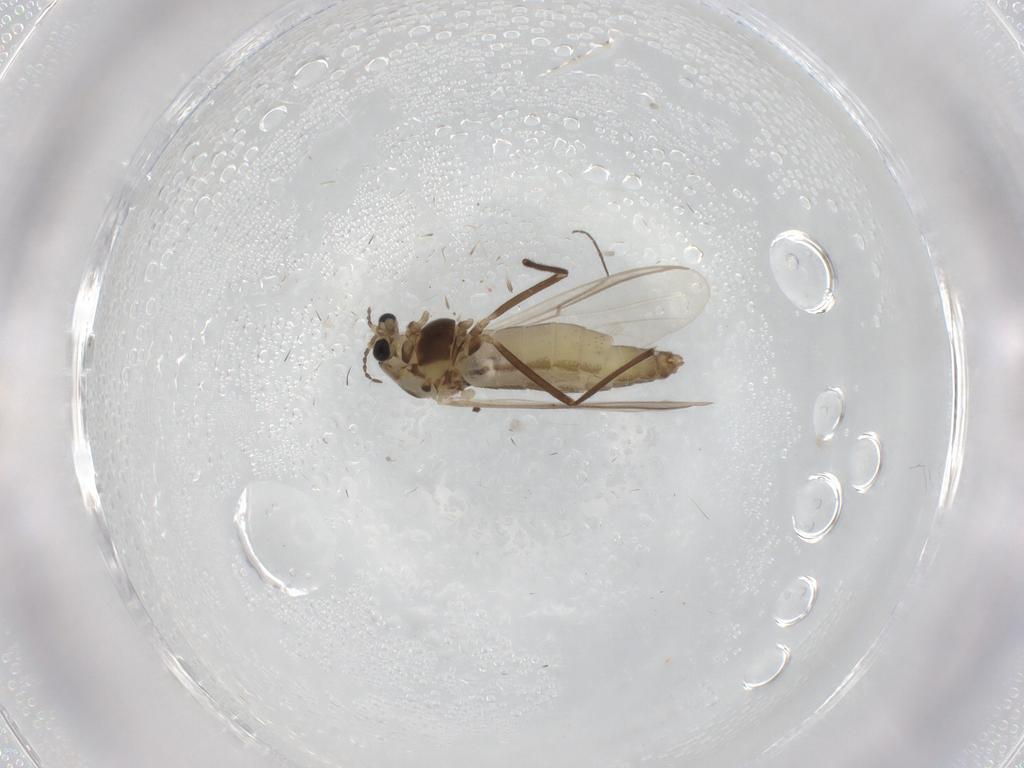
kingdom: Animalia
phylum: Arthropoda
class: Insecta
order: Diptera
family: Chironomidae
